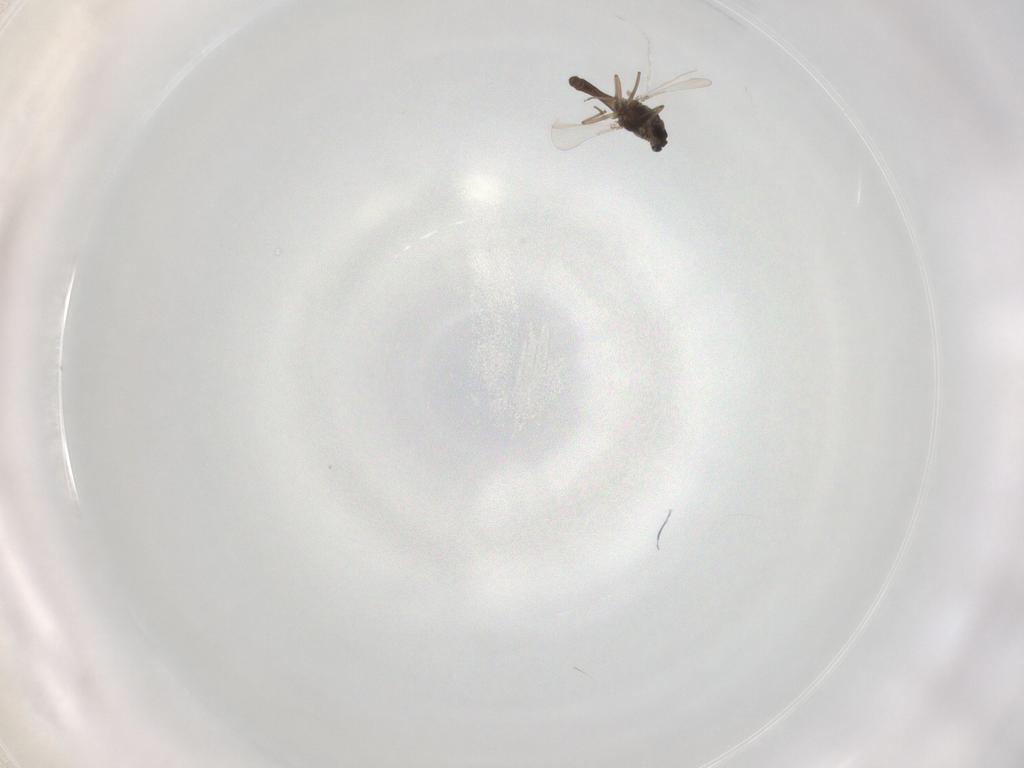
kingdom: Animalia
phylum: Arthropoda
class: Insecta
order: Diptera
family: Chironomidae
